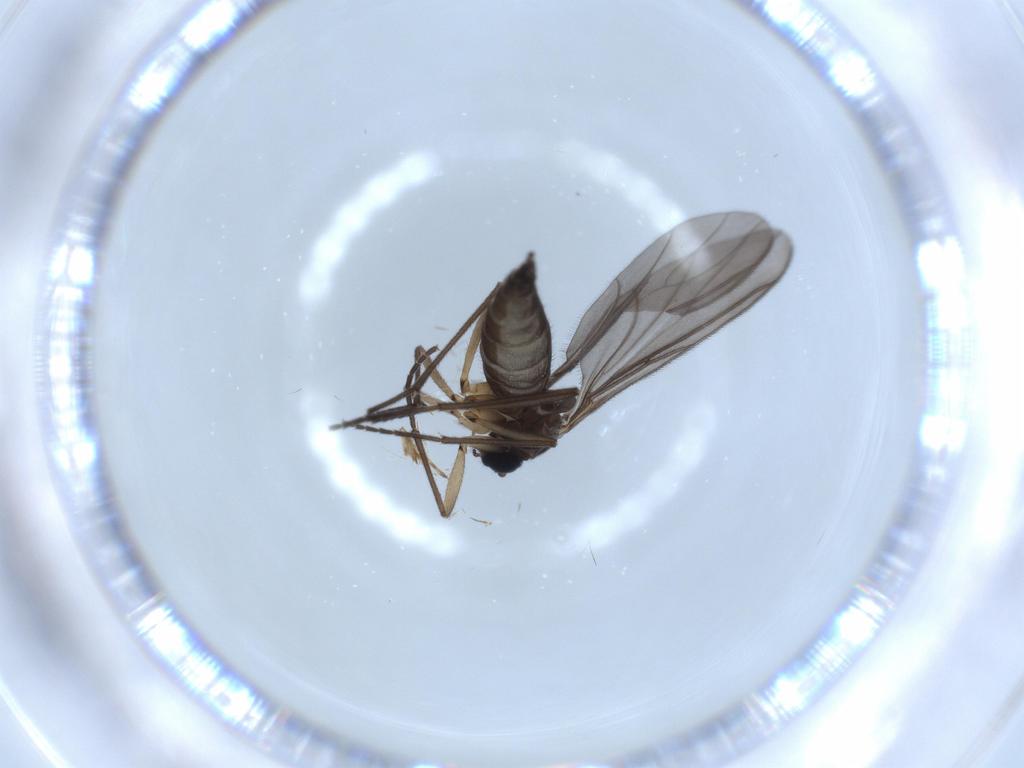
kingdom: Animalia
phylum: Arthropoda
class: Insecta
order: Diptera
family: Sciaridae
